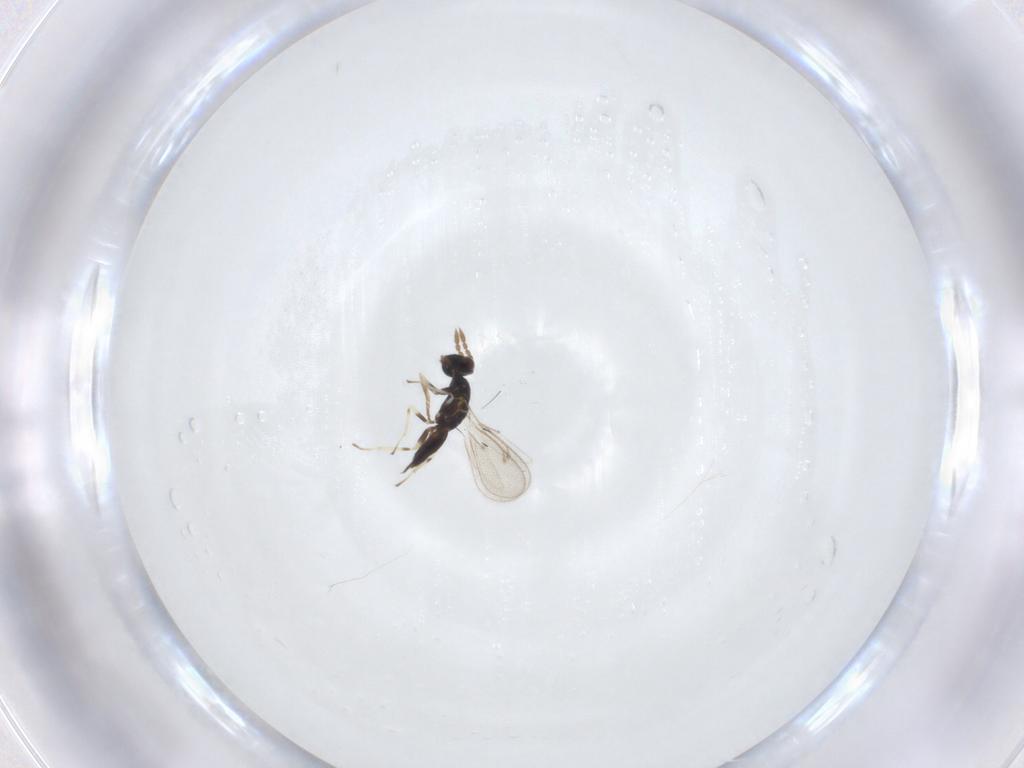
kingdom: Animalia
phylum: Arthropoda
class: Insecta
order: Hymenoptera
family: Eulophidae
